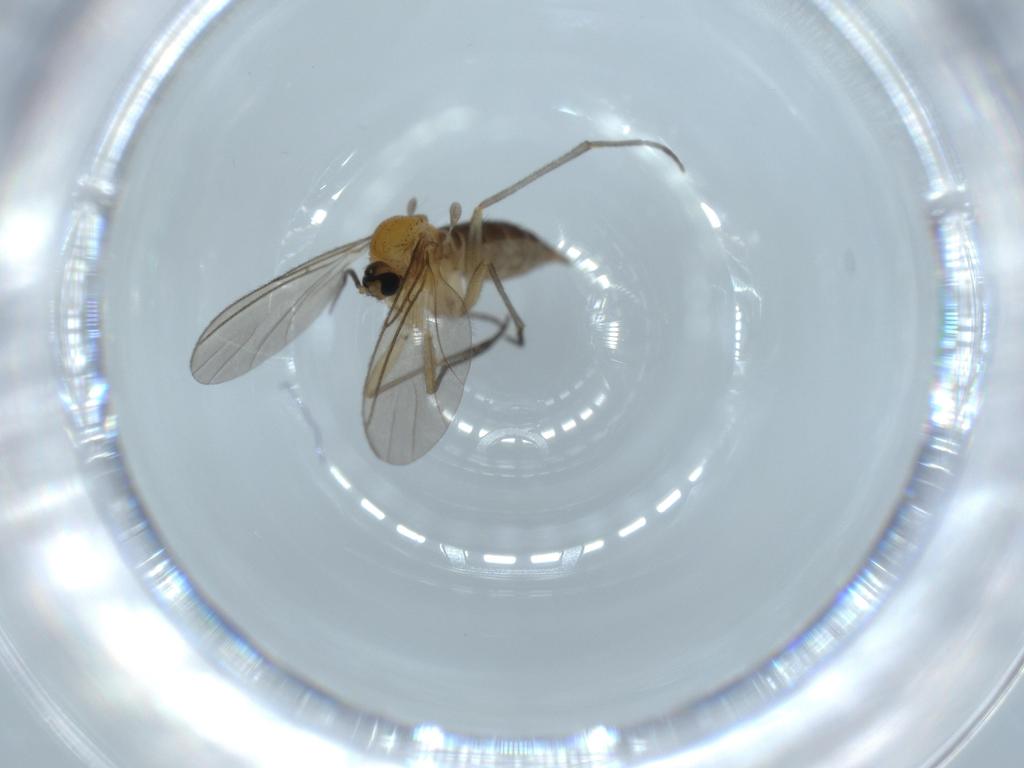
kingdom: Animalia
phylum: Arthropoda
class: Insecta
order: Diptera
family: Sciaridae
